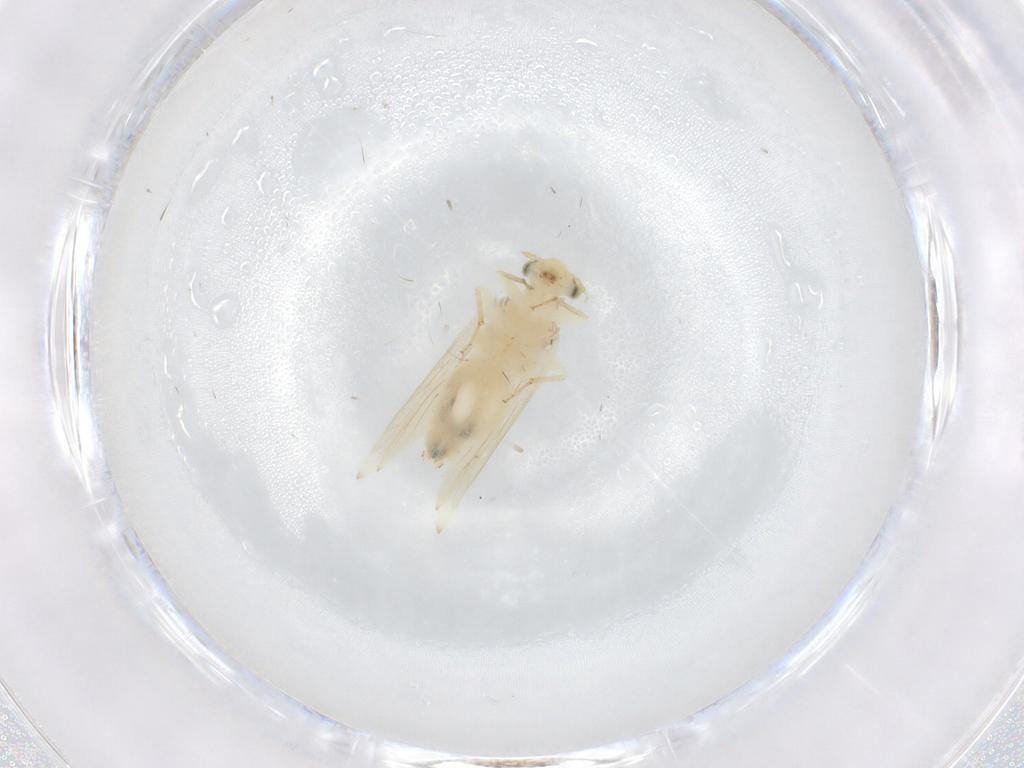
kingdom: Animalia
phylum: Arthropoda
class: Insecta
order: Psocodea
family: Lepidopsocidae
